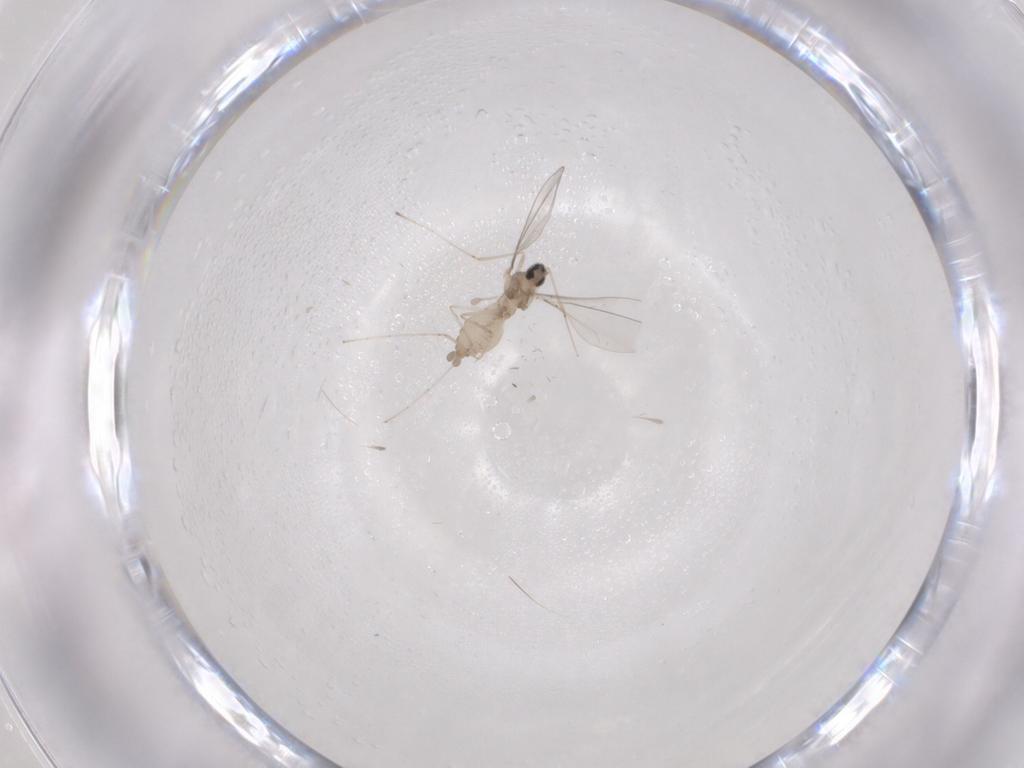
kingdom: Animalia
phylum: Arthropoda
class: Insecta
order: Diptera
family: Cecidomyiidae
